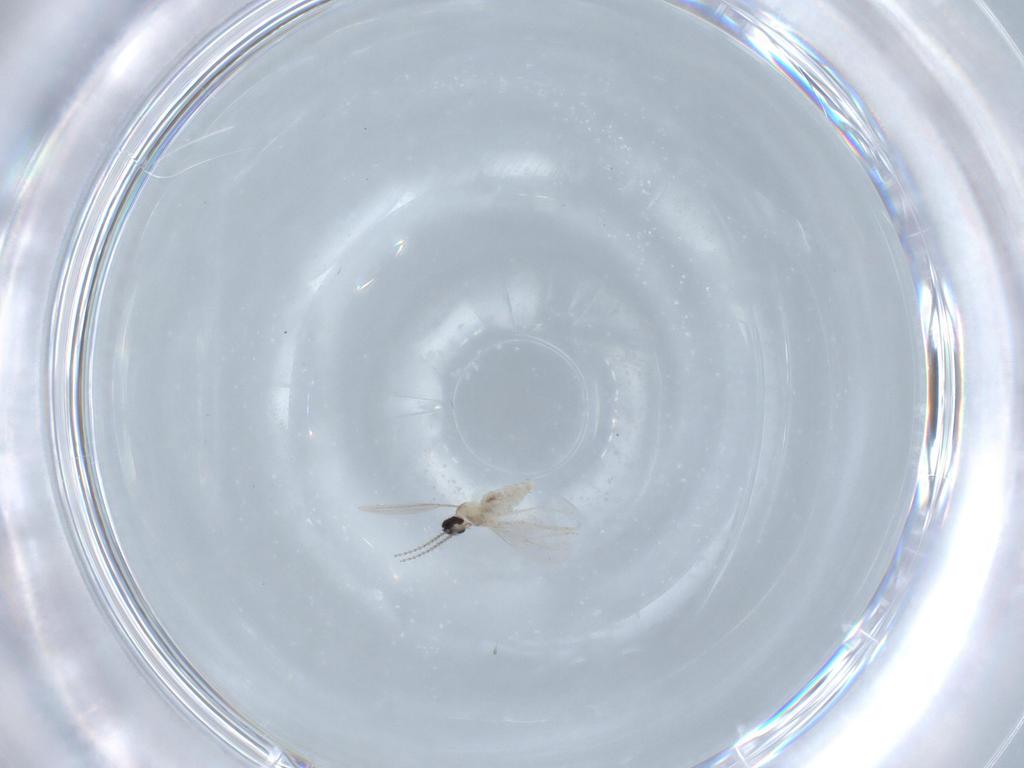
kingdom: Animalia
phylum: Arthropoda
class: Insecta
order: Diptera
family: Cecidomyiidae
